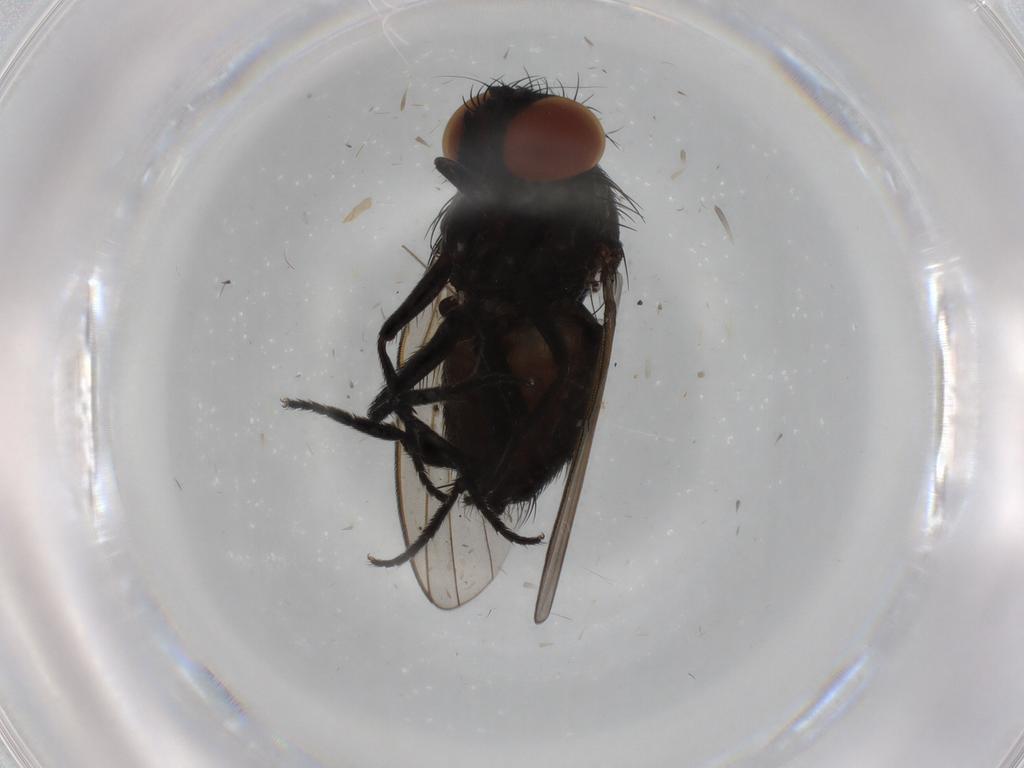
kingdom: Animalia
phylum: Arthropoda
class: Insecta
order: Diptera
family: Milichiidae
